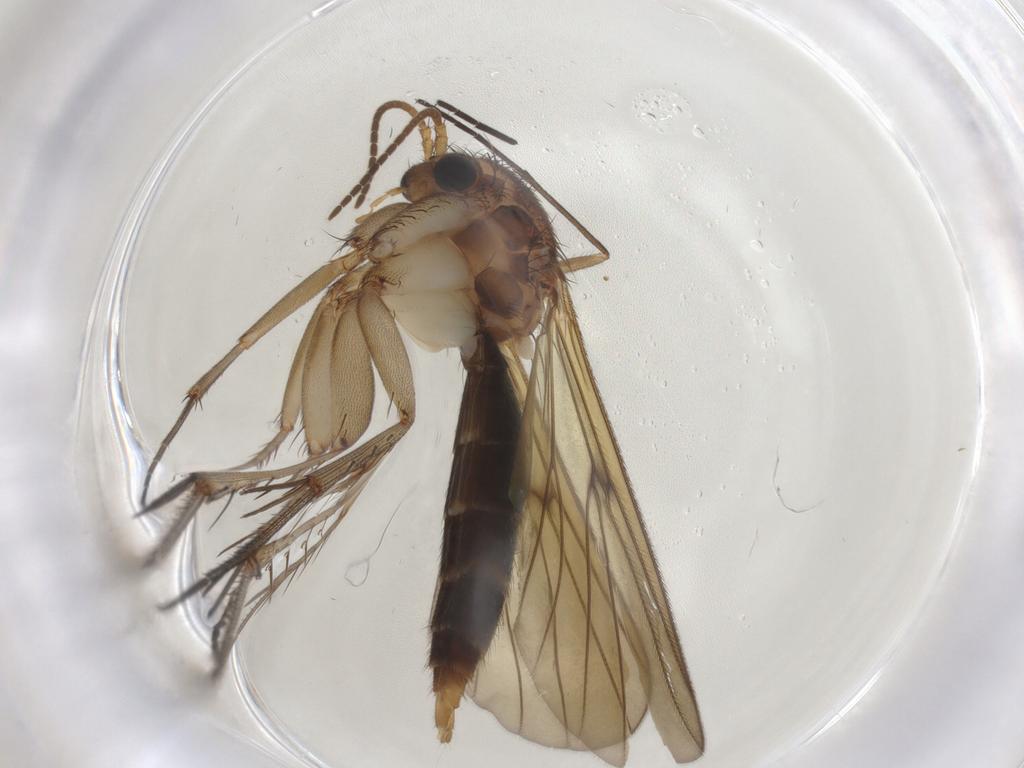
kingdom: Animalia
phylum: Arthropoda
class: Insecta
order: Diptera
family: Mycetophilidae
